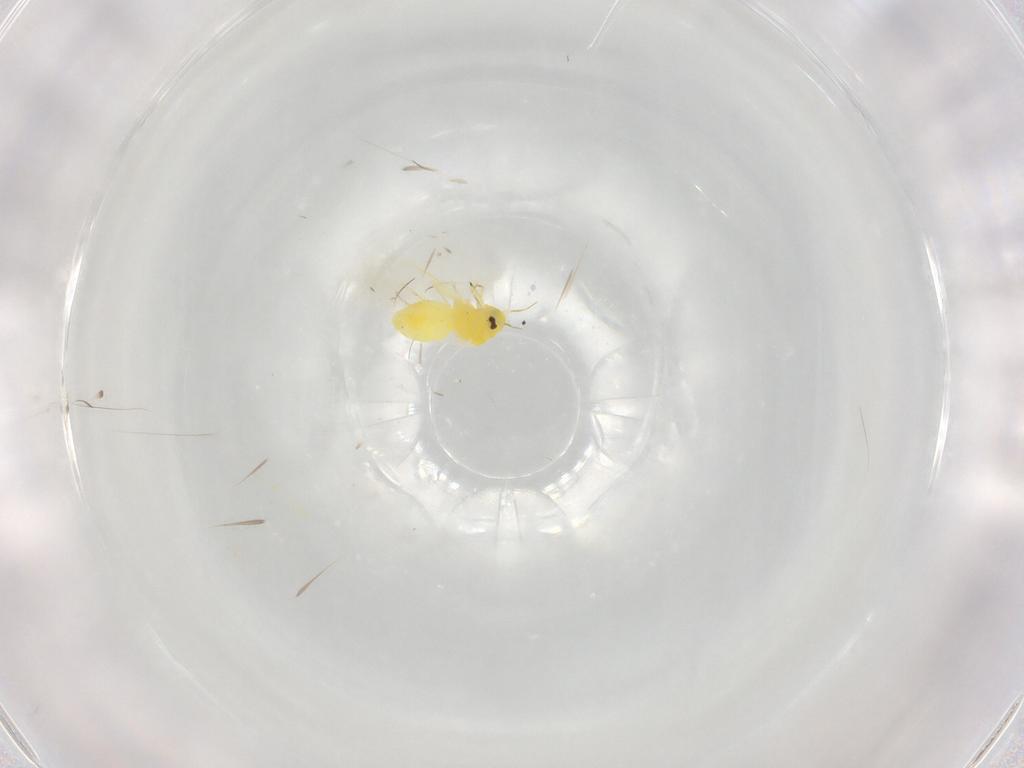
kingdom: Animalia
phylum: Arthropoda
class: Insecta
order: Hemiptera
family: Aleyrodidae
